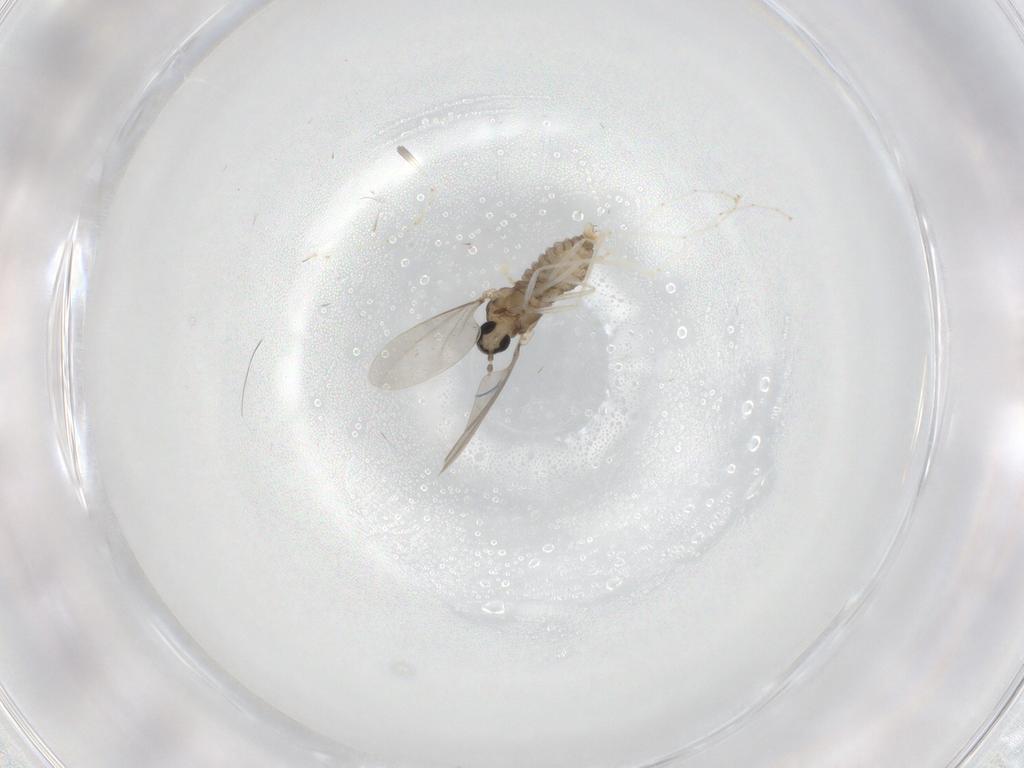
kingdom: Animalia
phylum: Arthropoda
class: Insecta
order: Diptera
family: Cecidomyiidae
